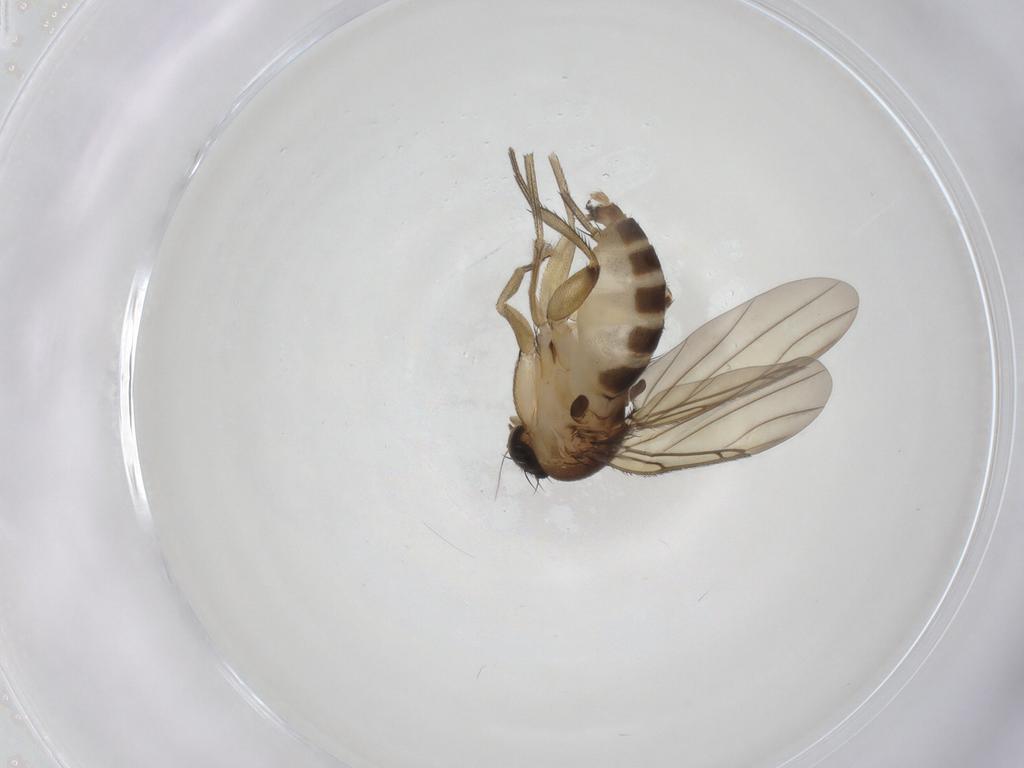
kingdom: Animalia
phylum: Arthropoda
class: Insecta
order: Diptera
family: Phoridae
